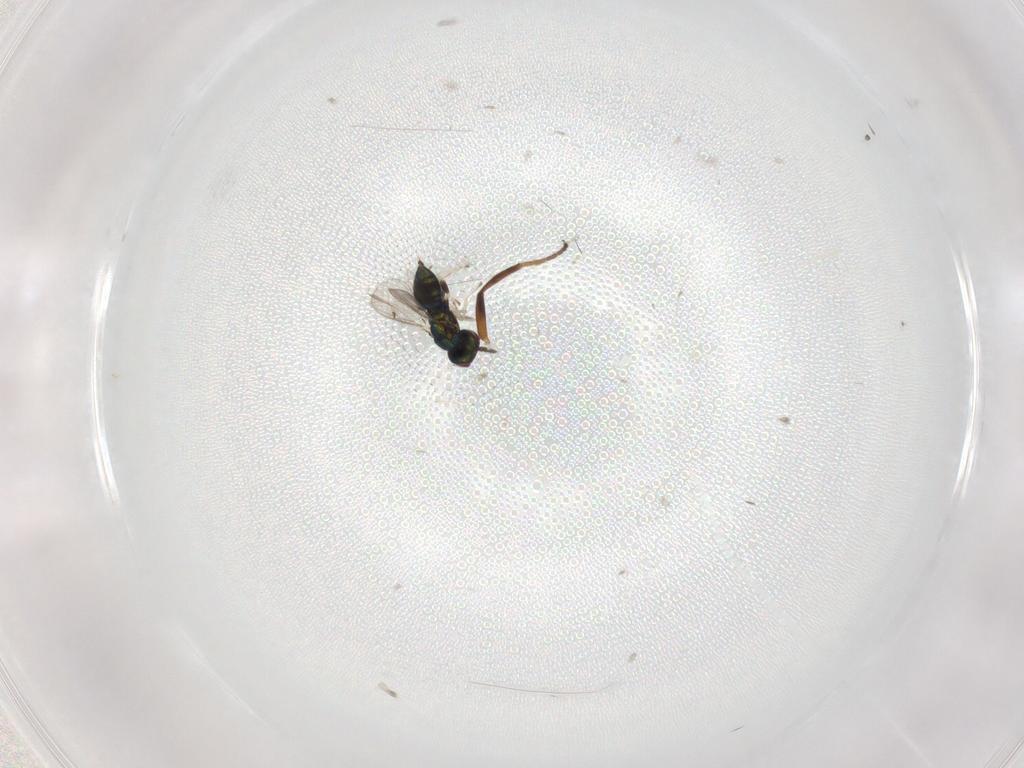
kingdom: Animalia
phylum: Arthropoda
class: Insecta
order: Hymenoptera
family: Eulophidae
